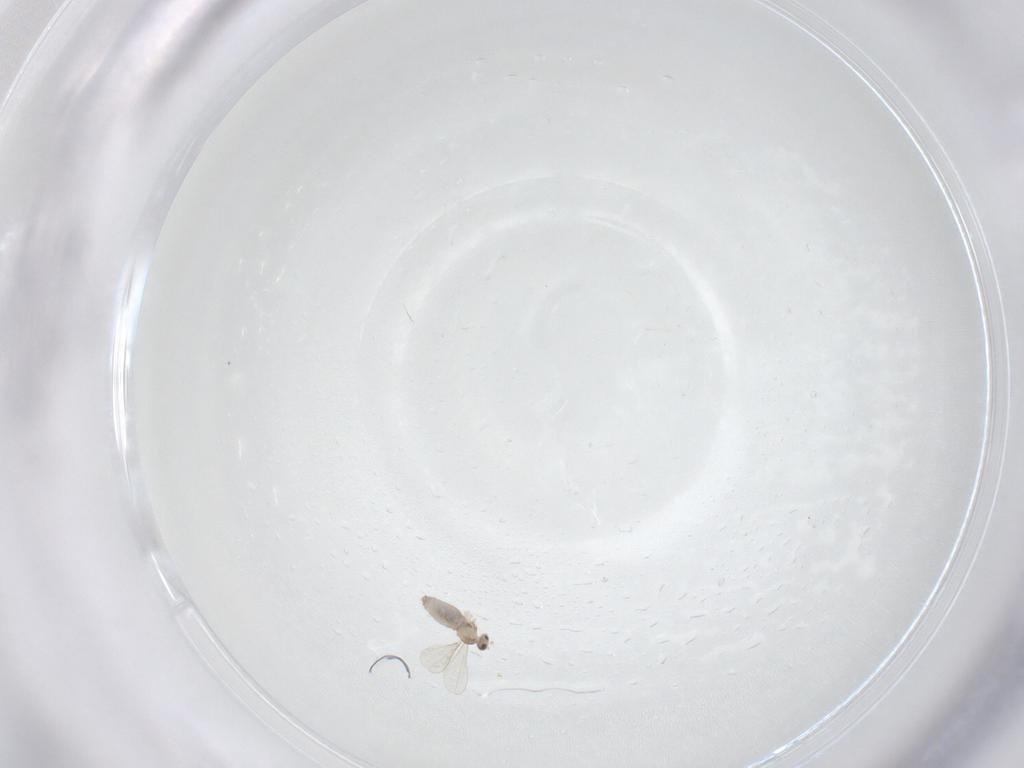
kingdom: Animalia
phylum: Arthropoda
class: Insecta
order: Diptera
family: Cecidomyiidae
